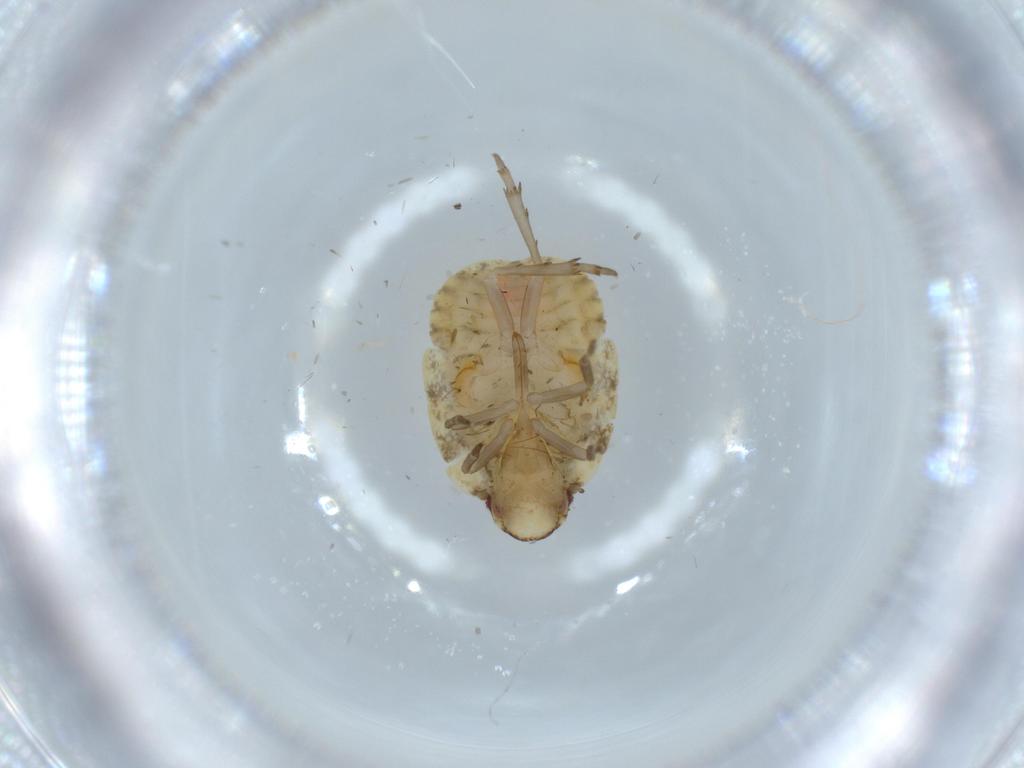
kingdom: Animalia
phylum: Arthropoda
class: Insecta
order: Hemiptera
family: Flatidae
